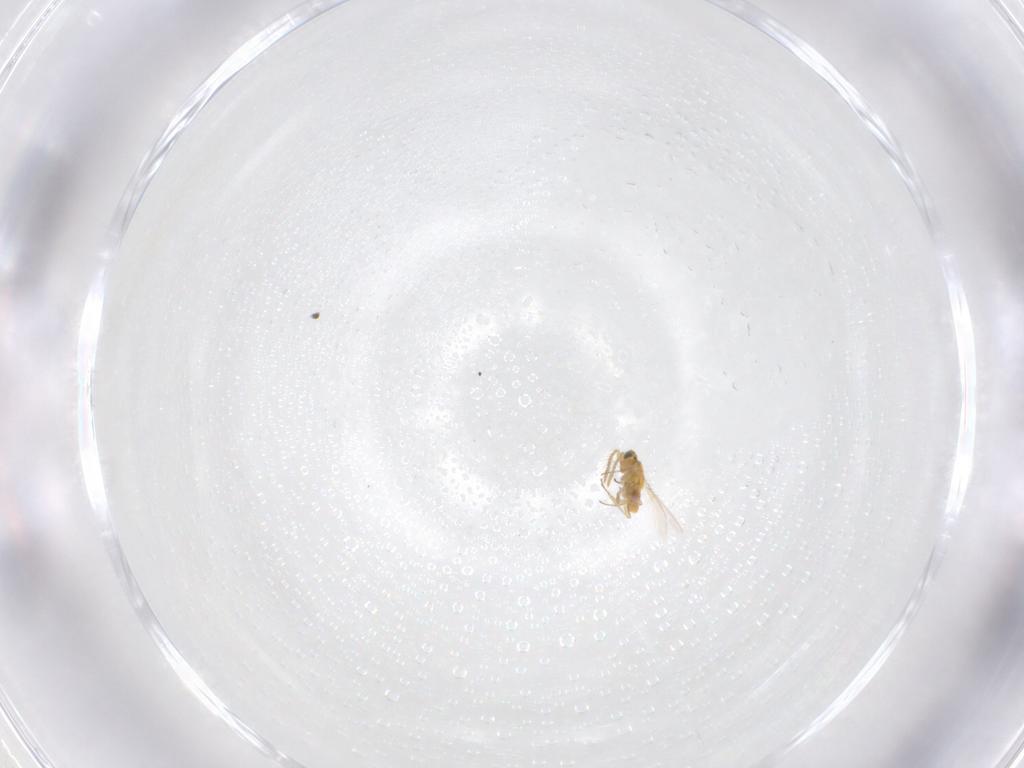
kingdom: Animalia
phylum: Arthropoda
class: Insecta
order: Hymenoptera
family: Aphelinidae
